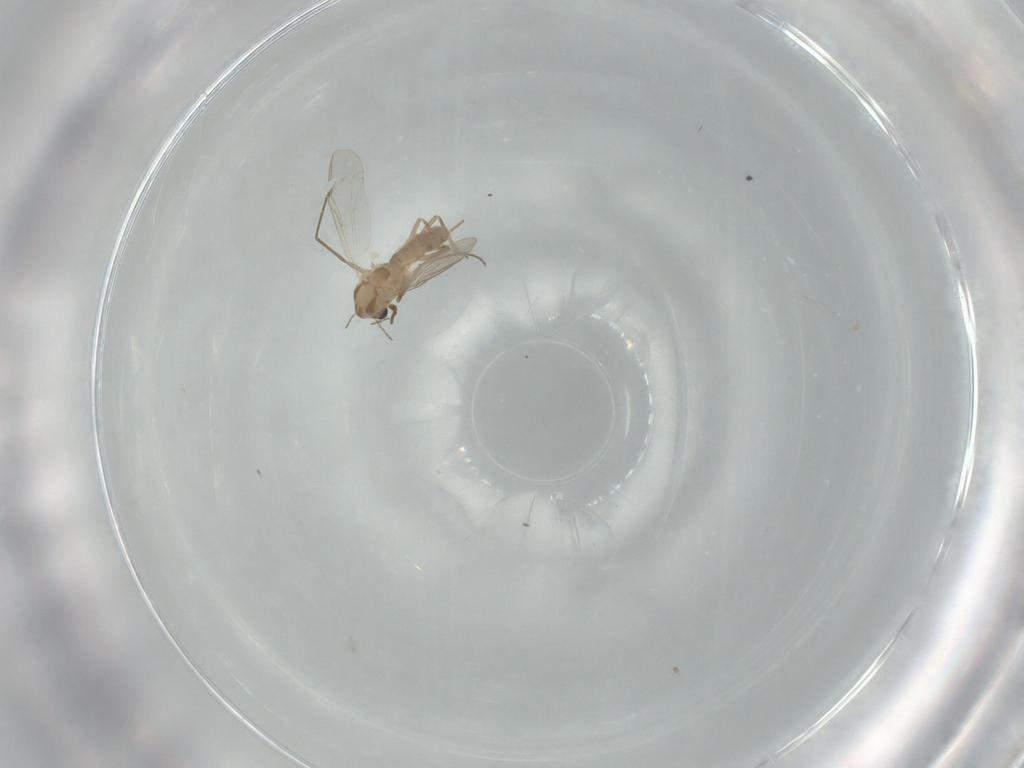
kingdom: Animalia
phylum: Arthropoda
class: Insecta
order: Diptera
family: Chironomidae
